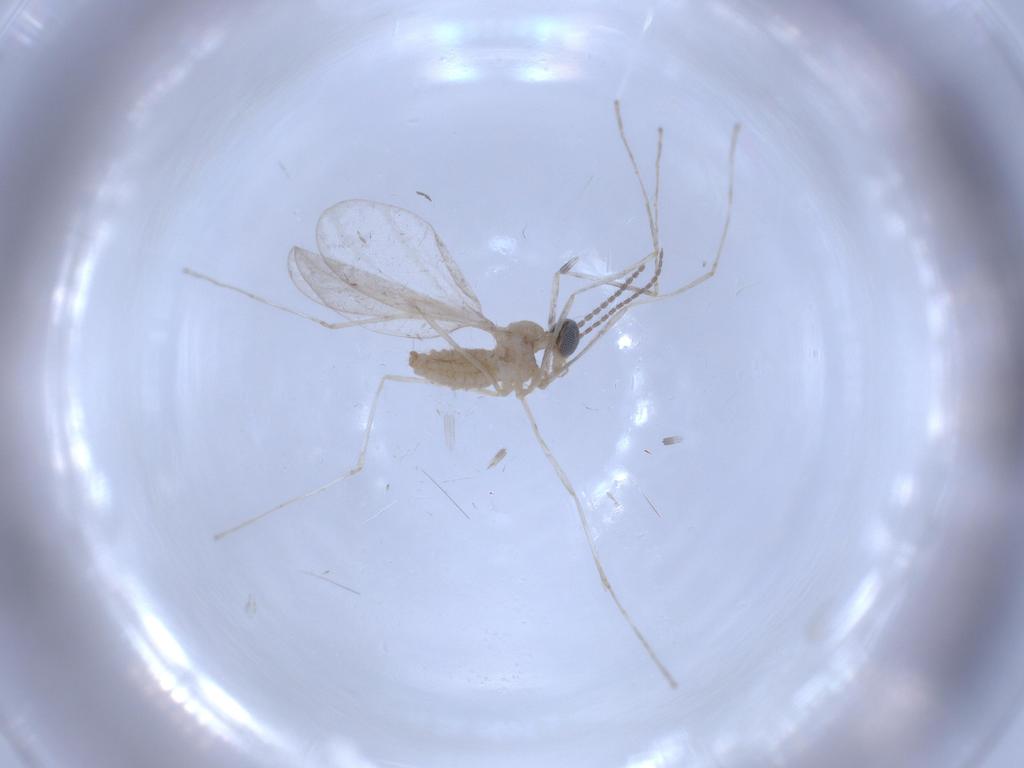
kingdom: Animalia
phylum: Arthropoda
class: Insecta
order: Diptera
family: Cecidomyiidae
